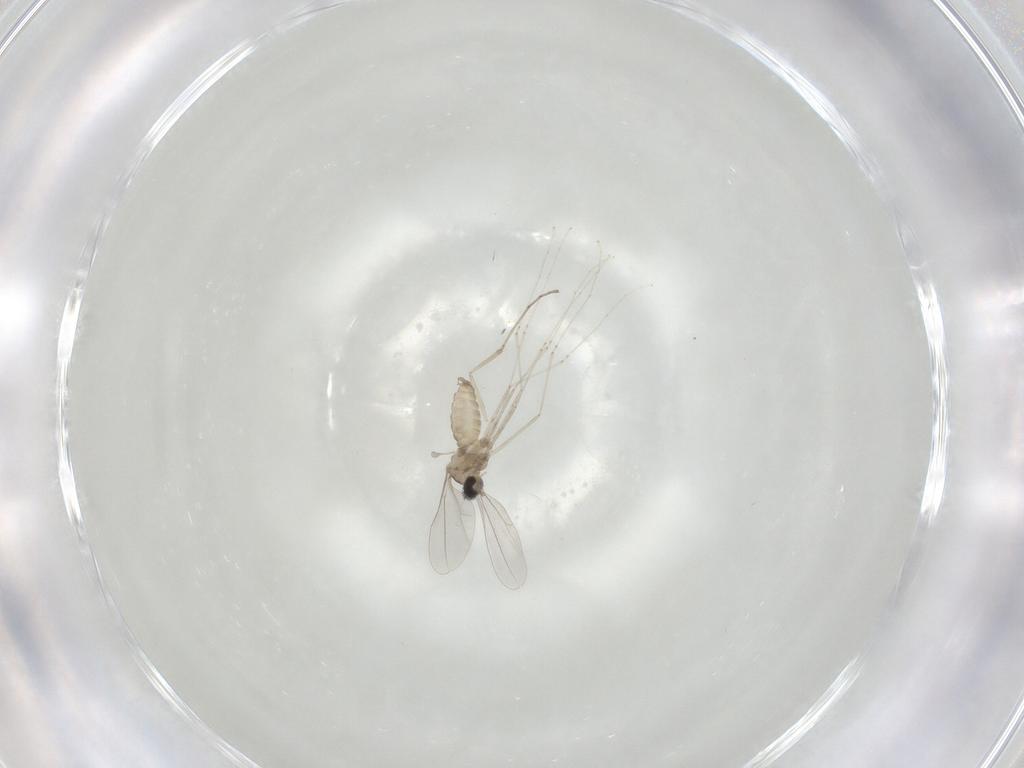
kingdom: Animalia
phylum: Arthropoda
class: Insecta
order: Diptera
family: Cecidomyiidae
